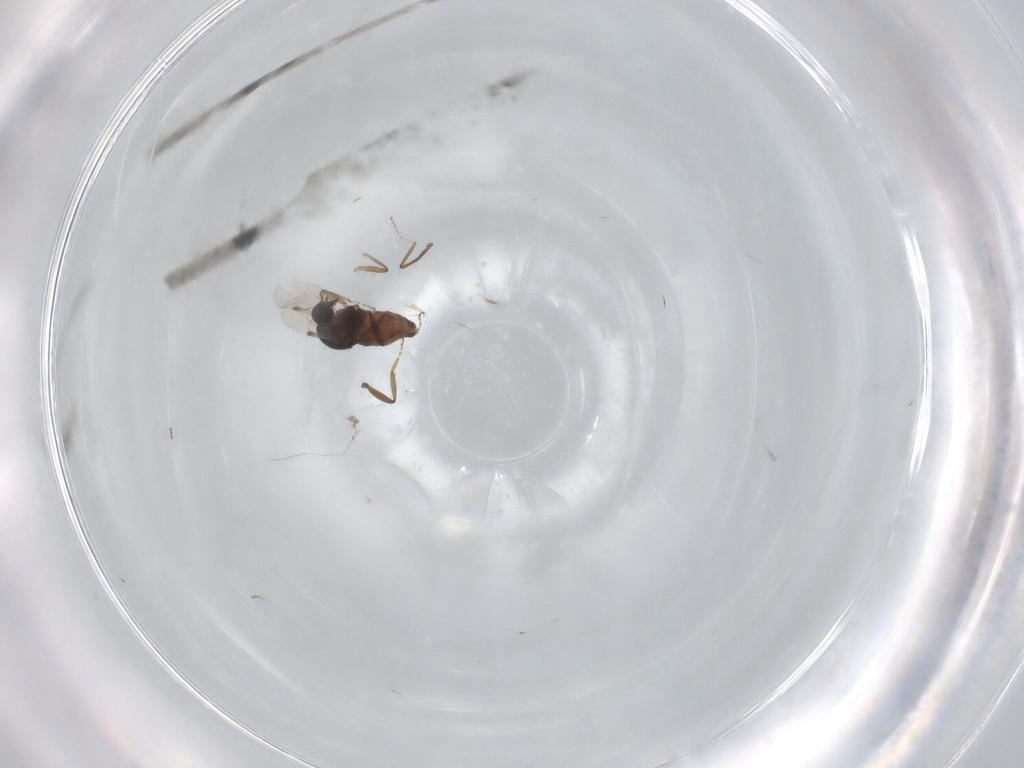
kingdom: Animalia
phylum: Arthropoda
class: Insecta
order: Diptera
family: Ceratopogonidae
